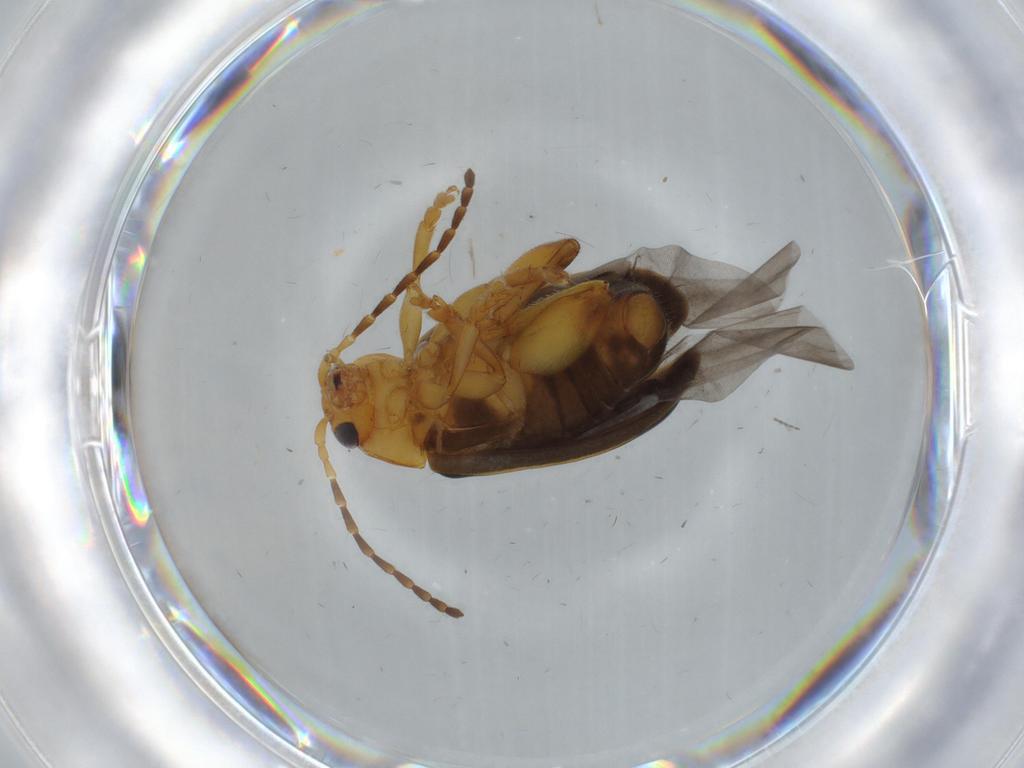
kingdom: Animalia
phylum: Arthropoda
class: Insecta
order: Coleoptera
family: Chrysomelidae
